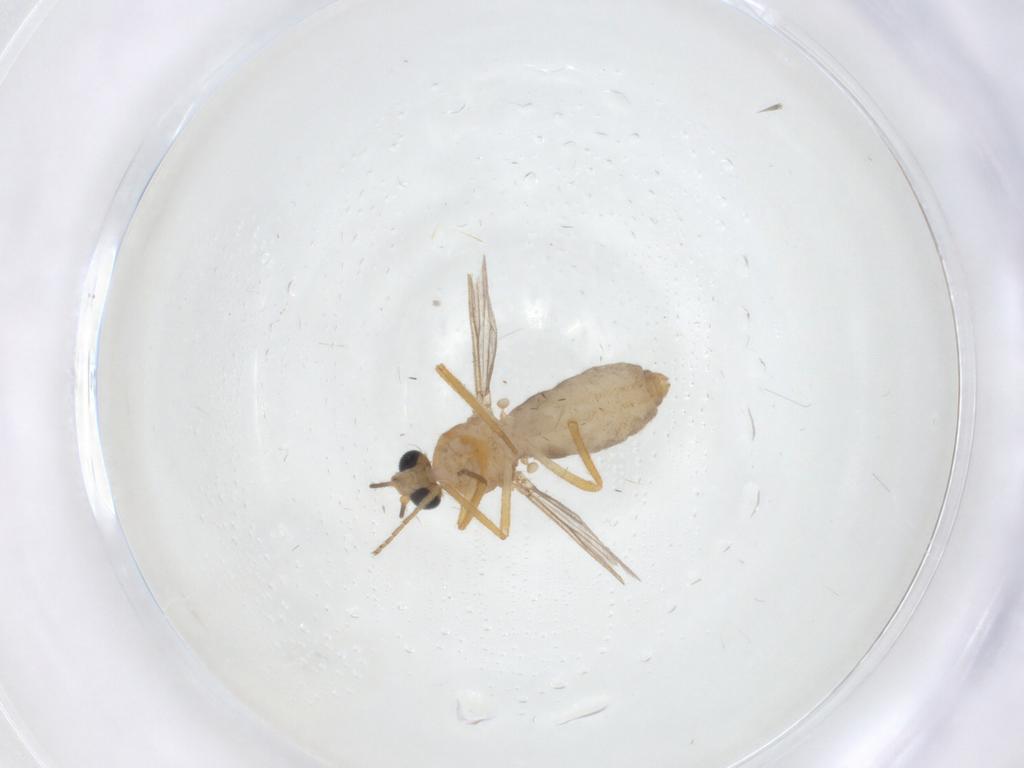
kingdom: Animalia
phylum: Arthropoda
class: Insecta
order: Diptera
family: Ceratopogonidae
